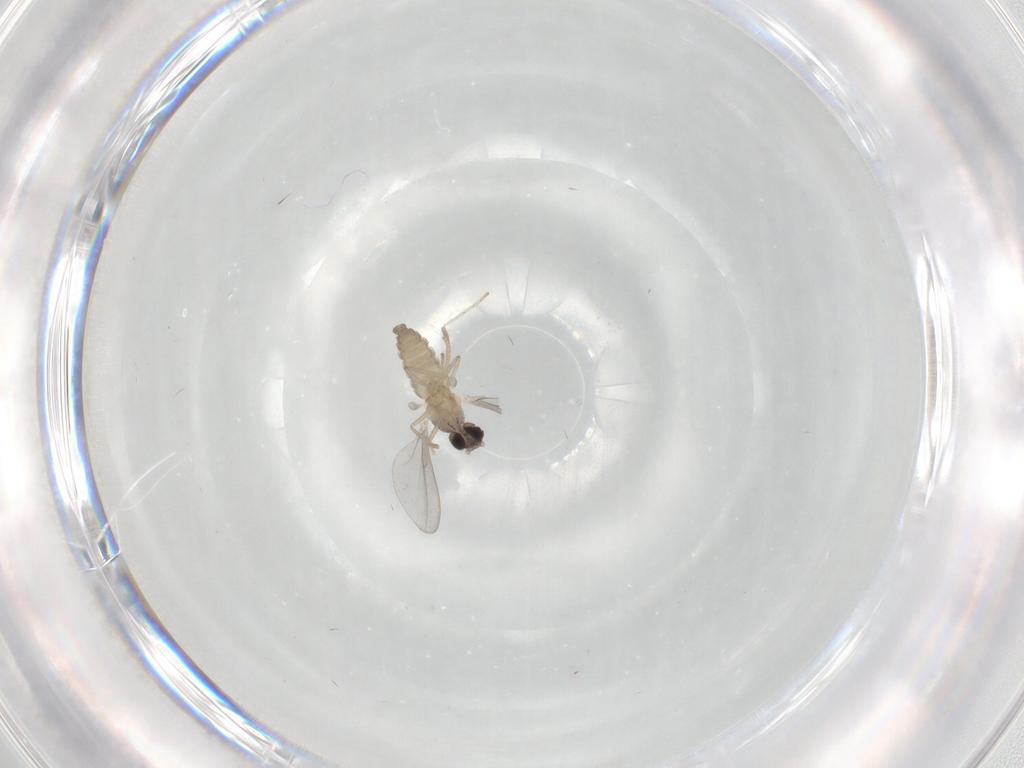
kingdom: Animalia
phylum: Arthropoda
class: Insecta
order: Diptera
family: Cecidomyiidae
